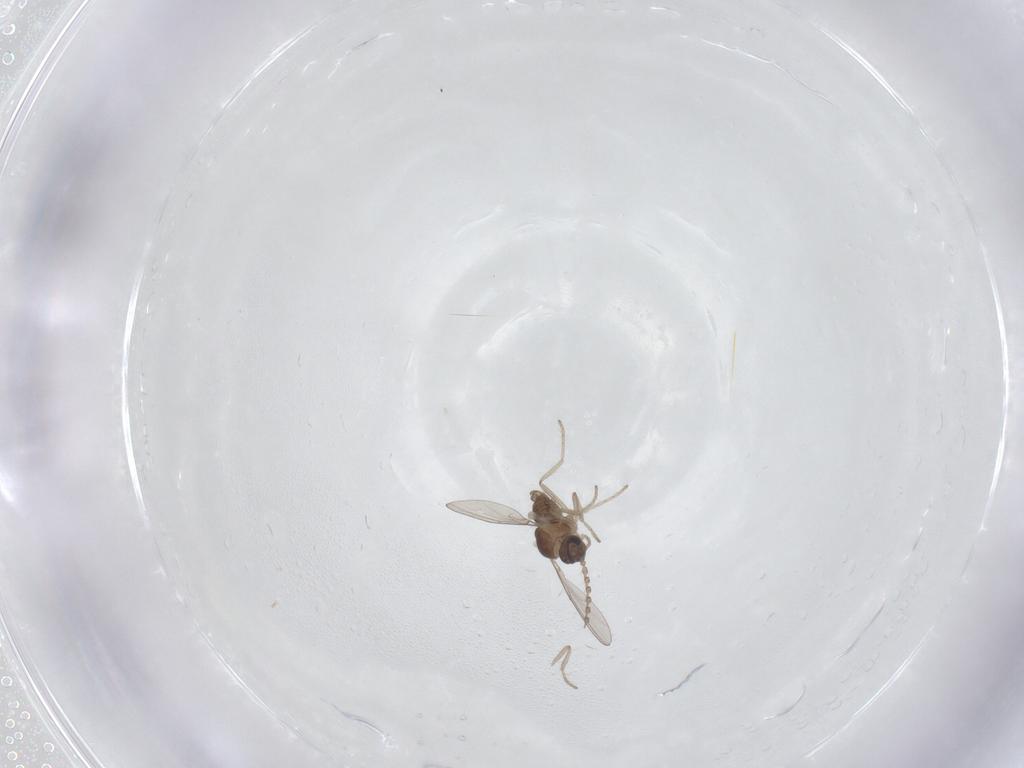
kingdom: Animalia
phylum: Arthropoda
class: Insecta
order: Diptera
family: Cecidomyiidae
